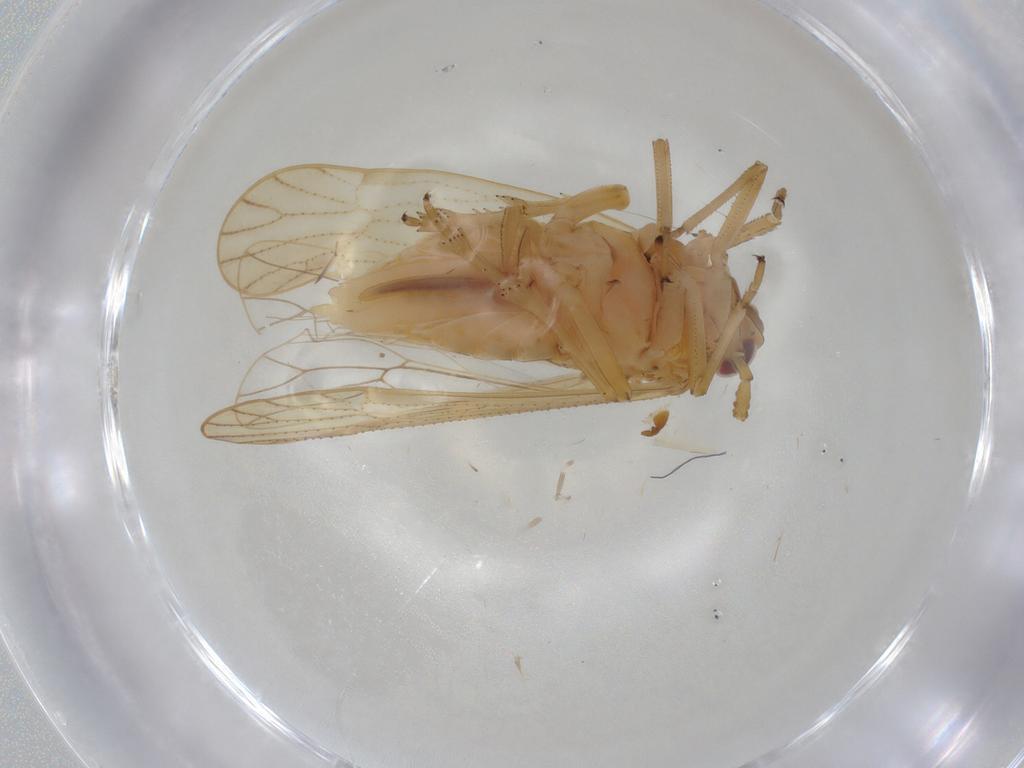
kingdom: Animalia
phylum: Arthropoda
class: Insecta
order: Hemiptera
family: Delphacidae
